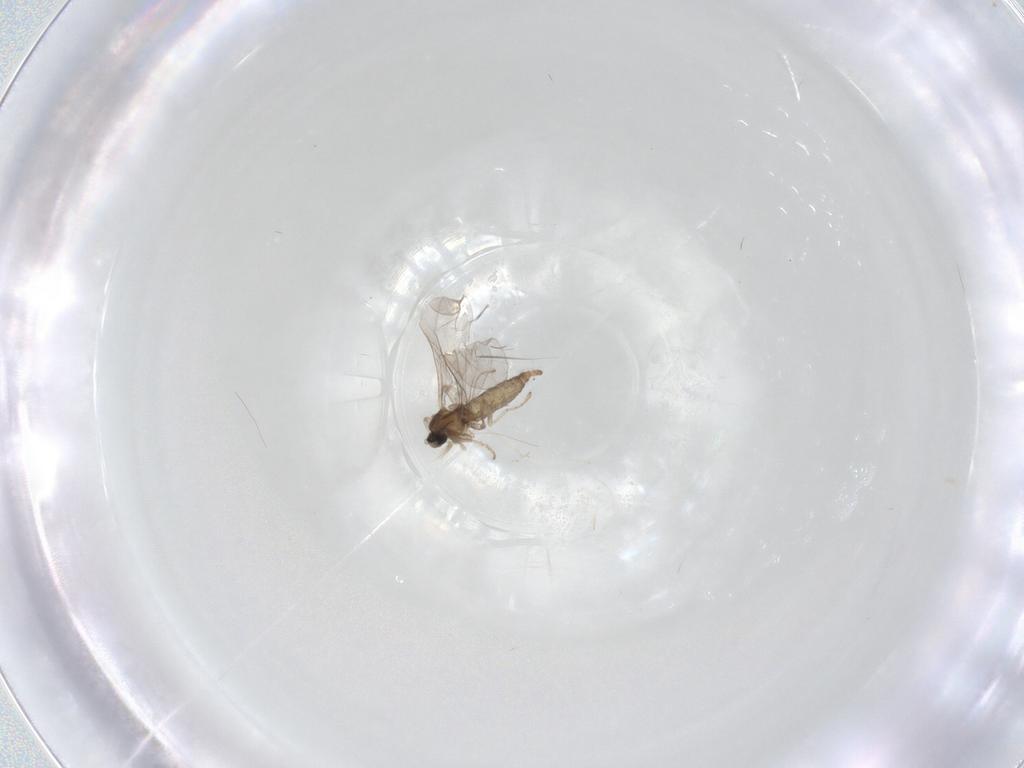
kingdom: Animalia
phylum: Arthropoda
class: Insecta
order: Diptera
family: Cecidomyiidae
